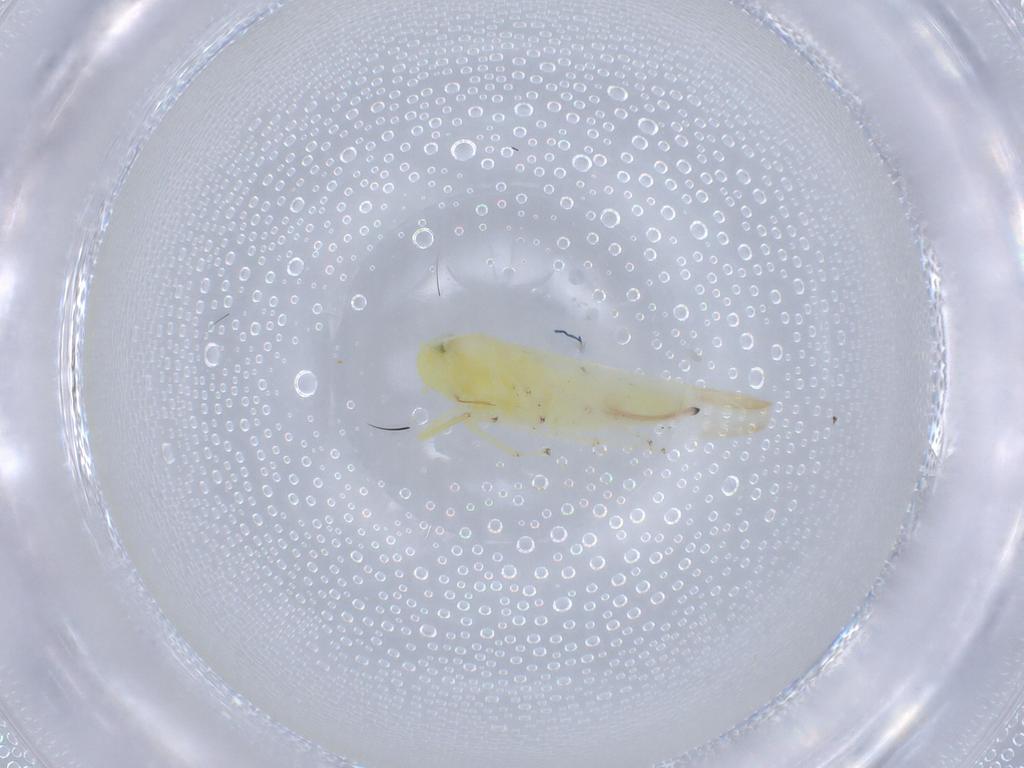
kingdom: Animalia
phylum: Arthropoda
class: Insecta
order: Hemiptera
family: Cicadellidae
